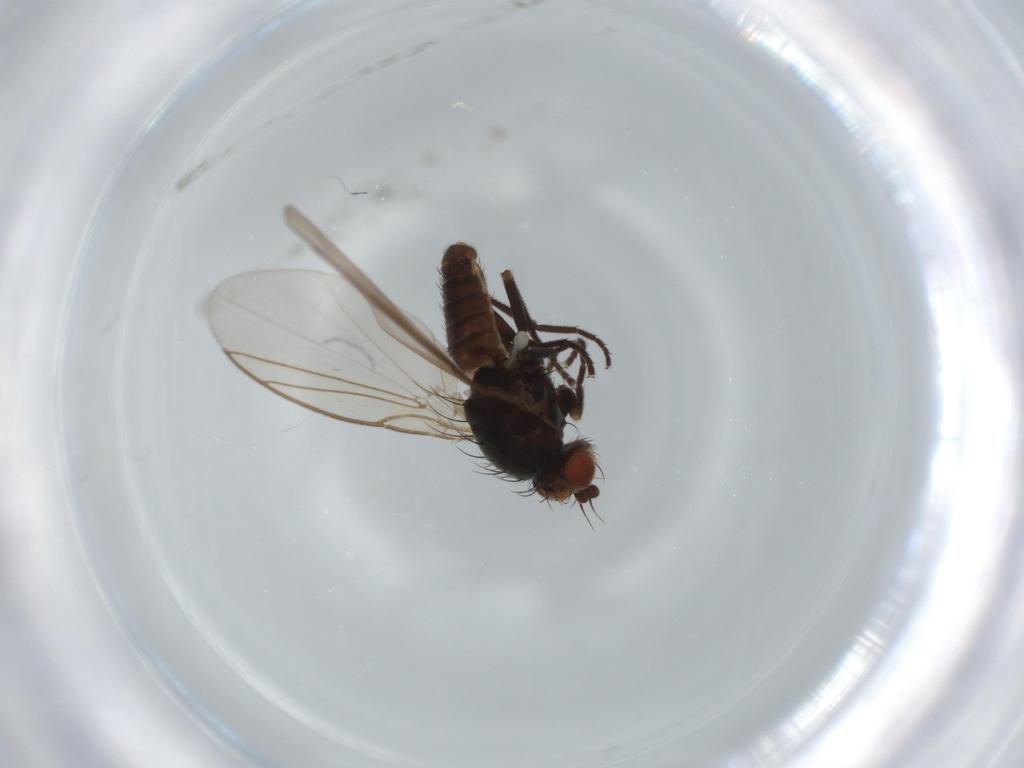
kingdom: Animalia
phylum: Arthropoda
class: Insecta
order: Diptera
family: Agromyzidae
